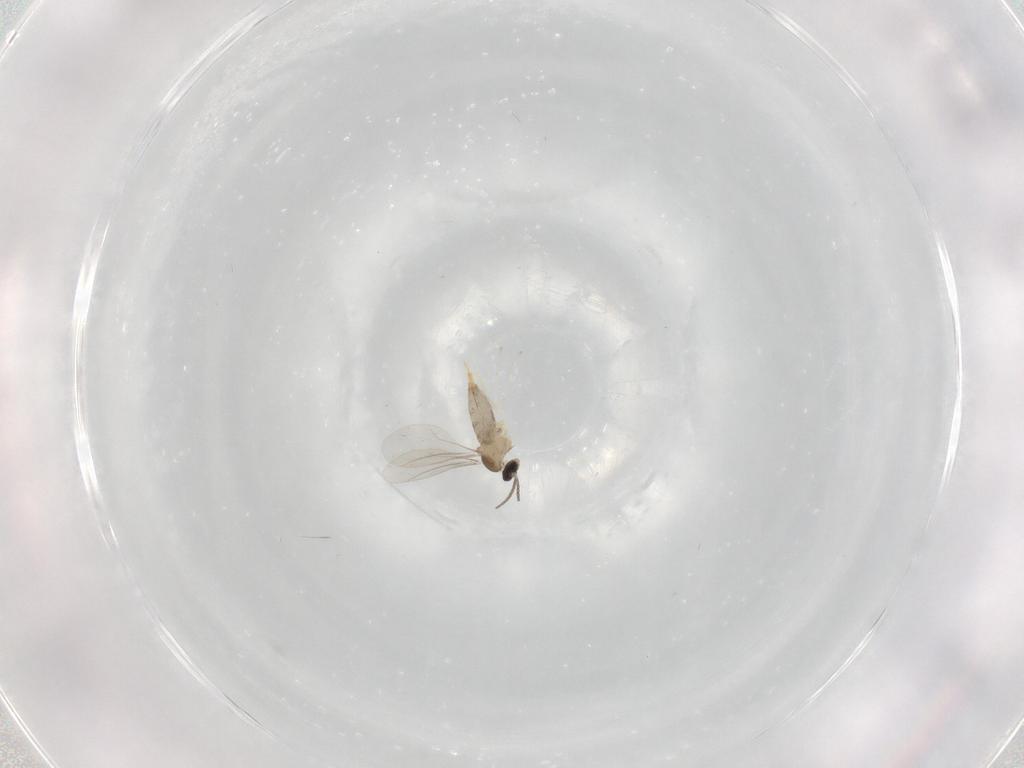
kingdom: Animalia
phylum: Arthropoda
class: Insecta
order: Diptera
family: Cecidomyiidae
